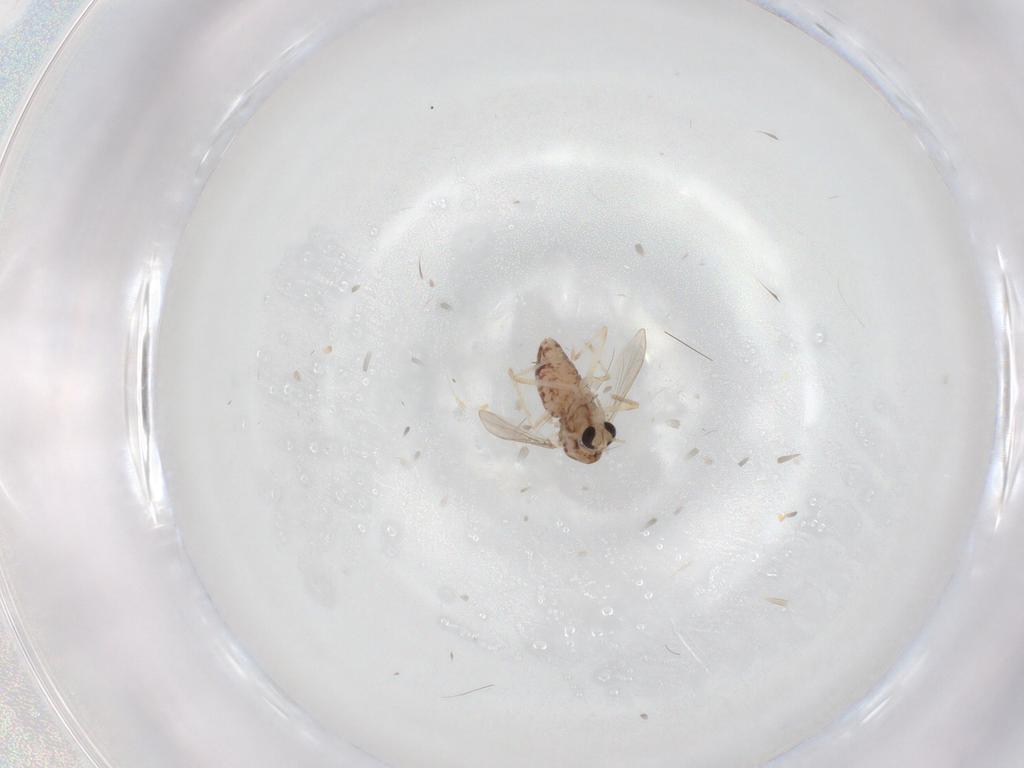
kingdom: Animalia
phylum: Arthropoda
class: Insecta
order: Diptera
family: Chironomidae
